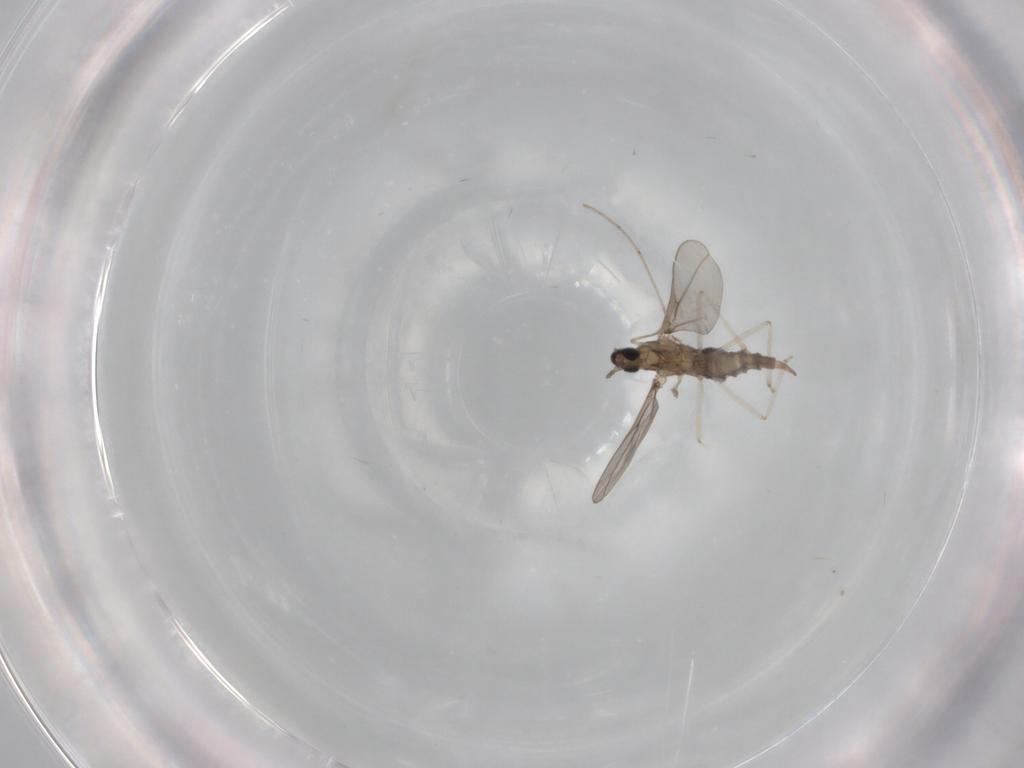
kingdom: Animalia
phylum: Arthropoda
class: Insecta
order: Diptera
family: Cecidomyiidae
